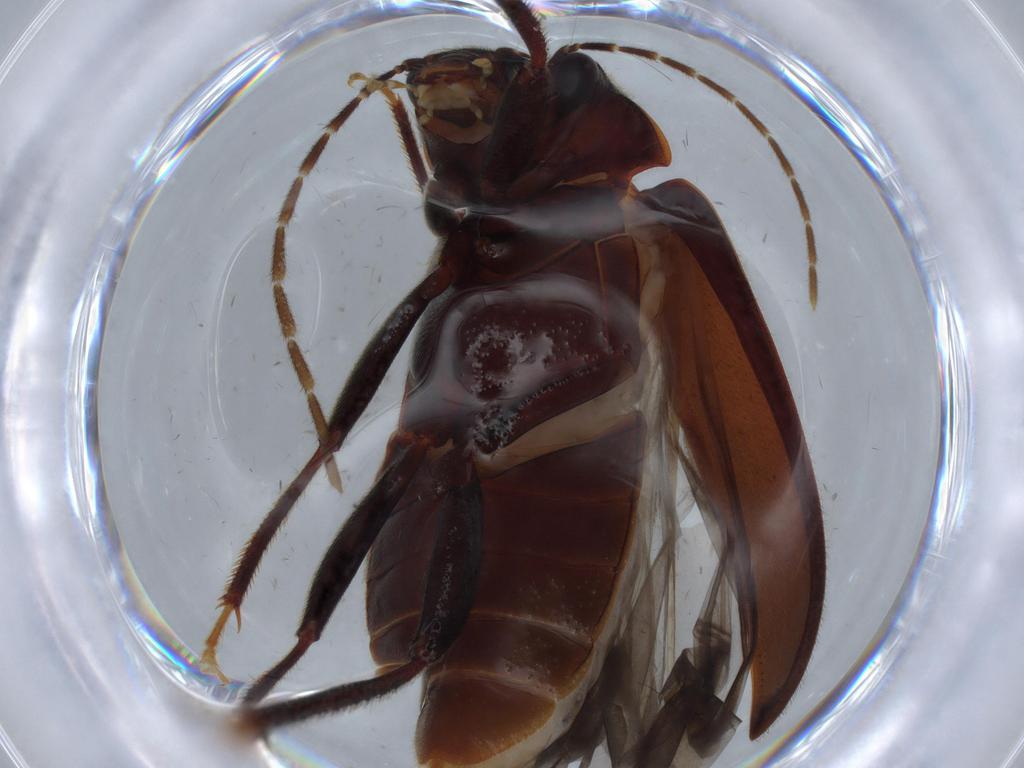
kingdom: Animalia
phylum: Arthropoda
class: Insecta
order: Coleoptera
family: Ptilodactylidae
